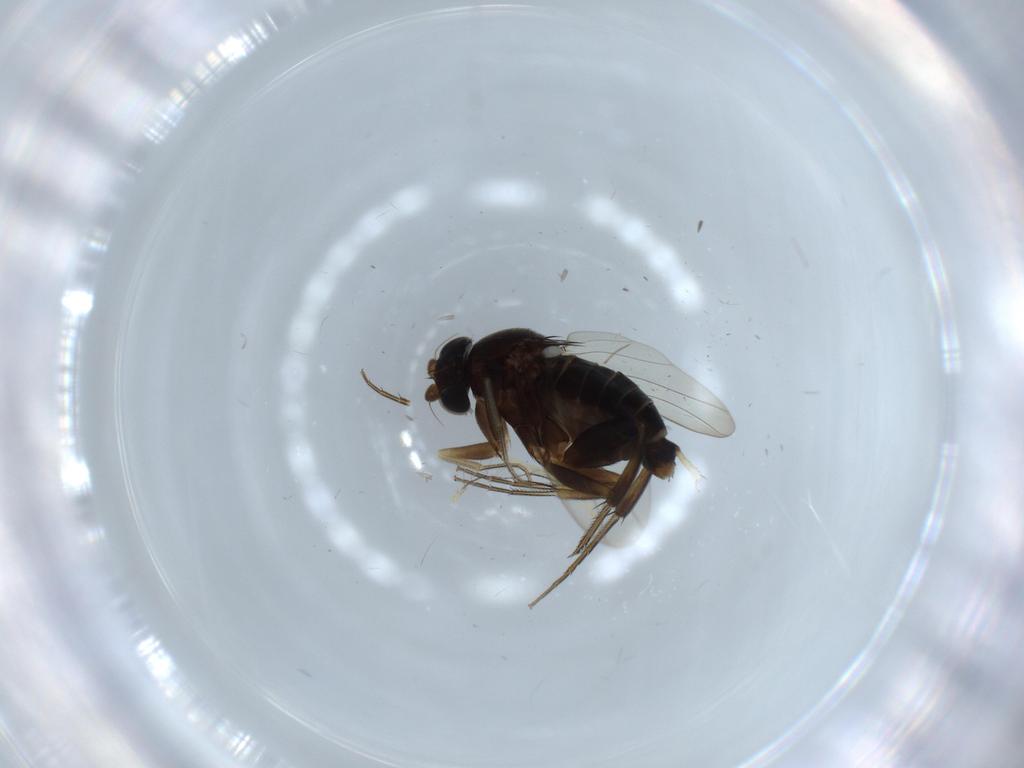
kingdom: Animalia
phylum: Arthropoda
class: Insecta
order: Diptera
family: Phoridae
